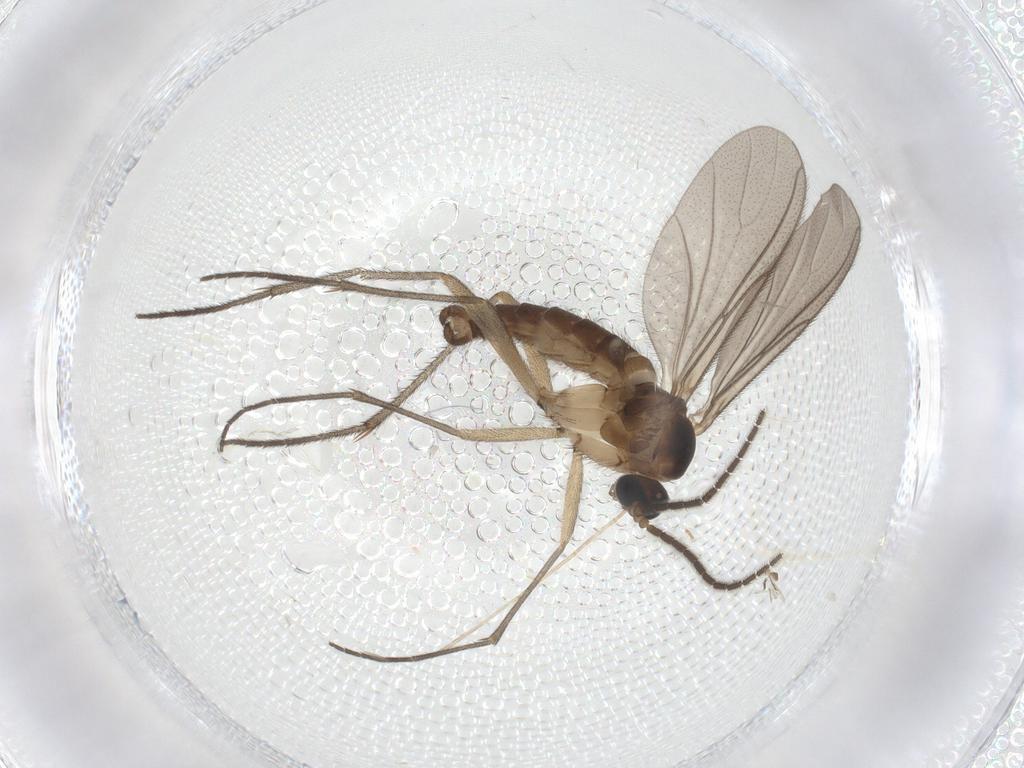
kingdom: Animalia
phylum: Arthropoda
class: Insecta
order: Diptera
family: Sciaridae
